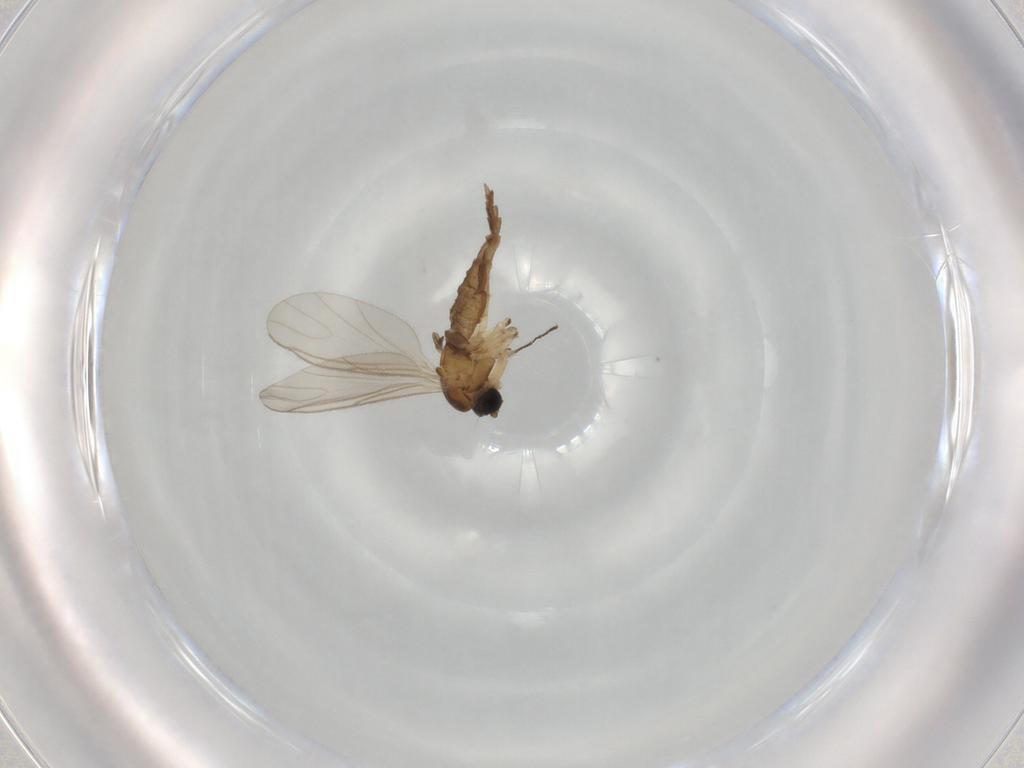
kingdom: Animalia
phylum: Arthropoda
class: Insecta
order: Diptera
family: Sciaridae
